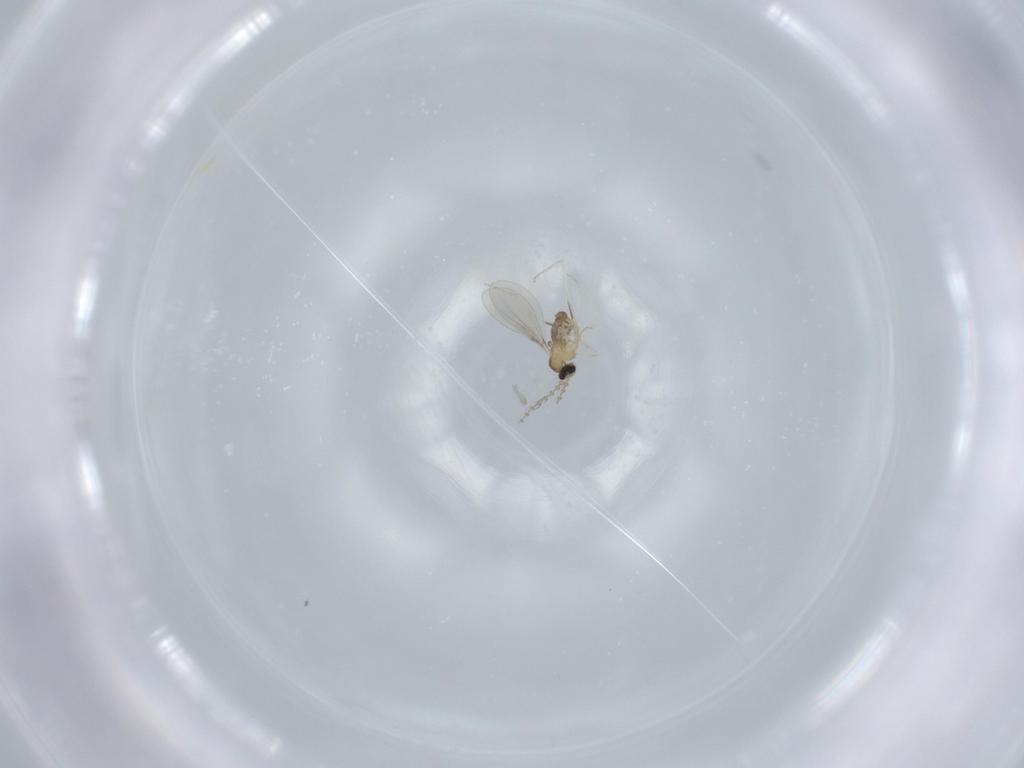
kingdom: Animalia
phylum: Arthropoda
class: Insecta
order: Diptera
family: Cecidomyiidae
